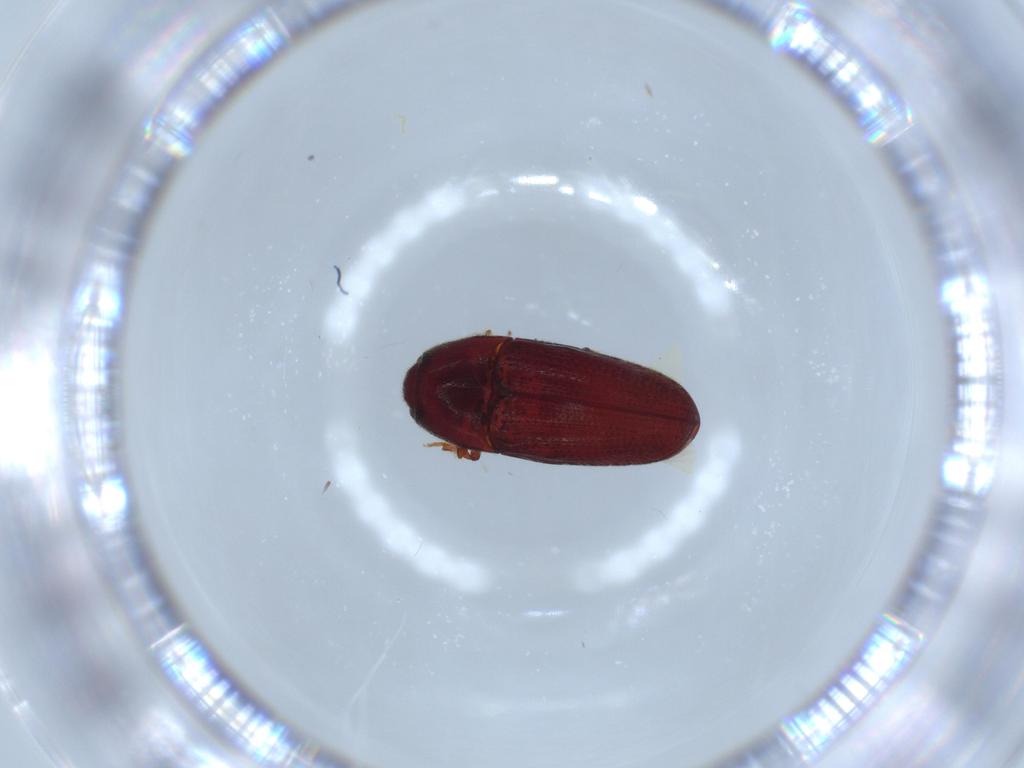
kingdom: Animalia
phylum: Arthropoda
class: Insecta
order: Coleoptera
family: Throscidae
